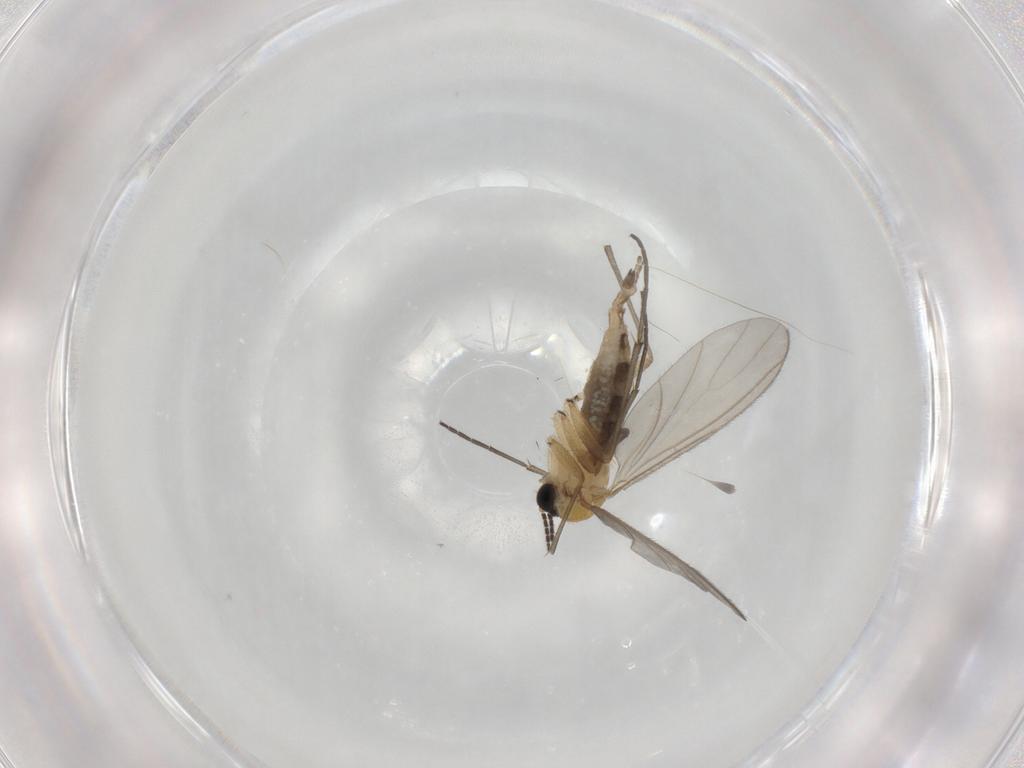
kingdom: Animalia
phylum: Arthropoda
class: Insecta
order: Diptera
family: Sciaridae
